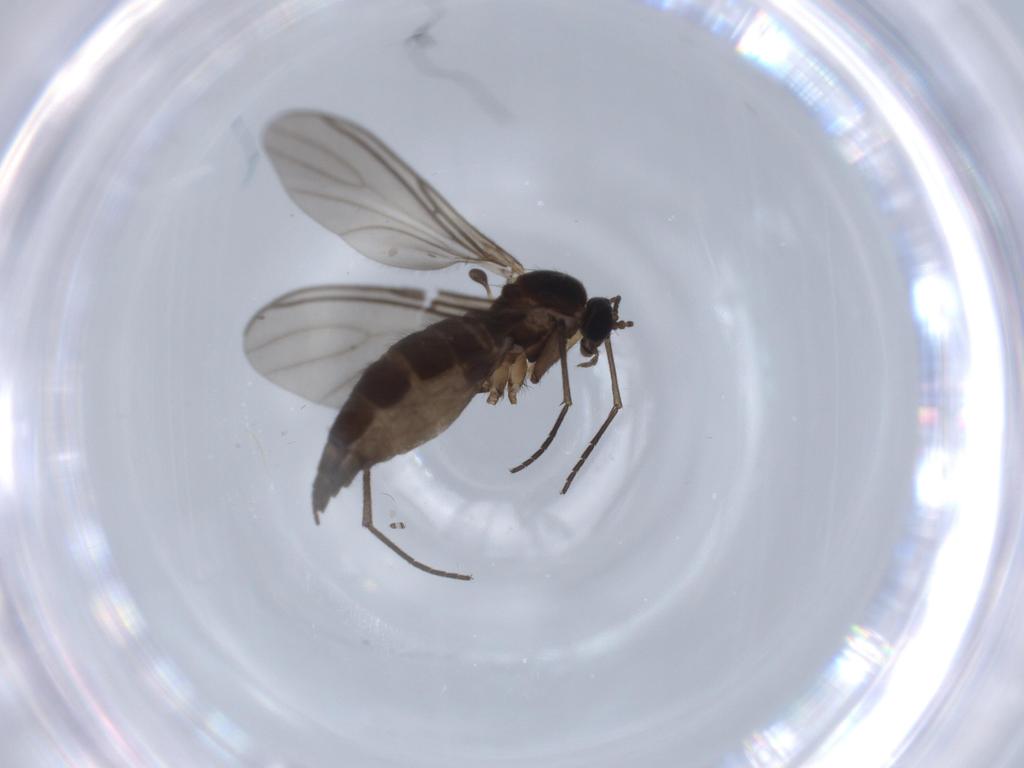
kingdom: Animalia
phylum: Arthropoda
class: Insecta
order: Diptera
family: Sciaridae
